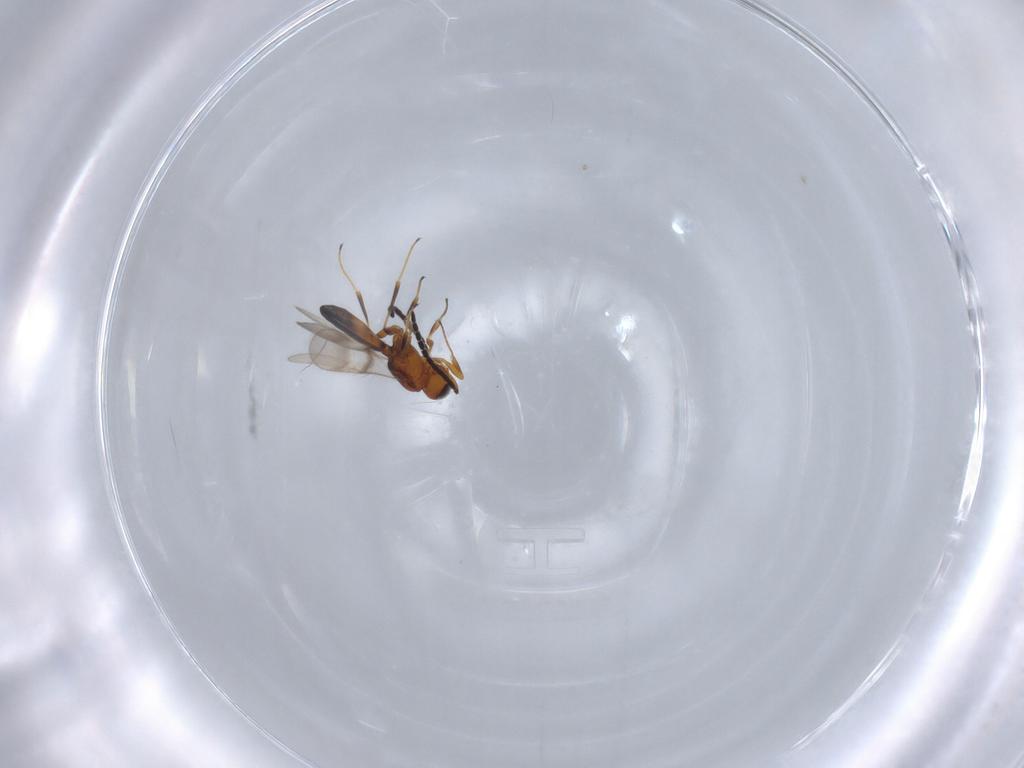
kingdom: Animalia
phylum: Arthropoda
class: Insecta
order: Hymenoptera
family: Scelionidae
